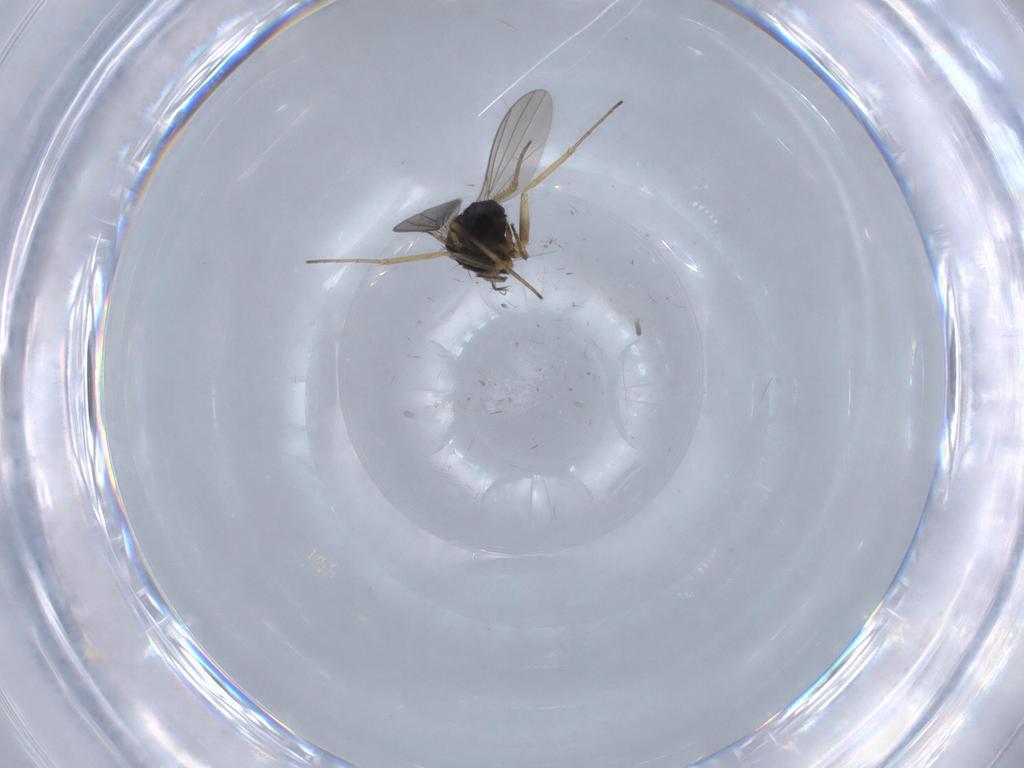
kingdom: Animalia
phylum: Arthropoda
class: Insecta
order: Diptera
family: Dolichopodidae
